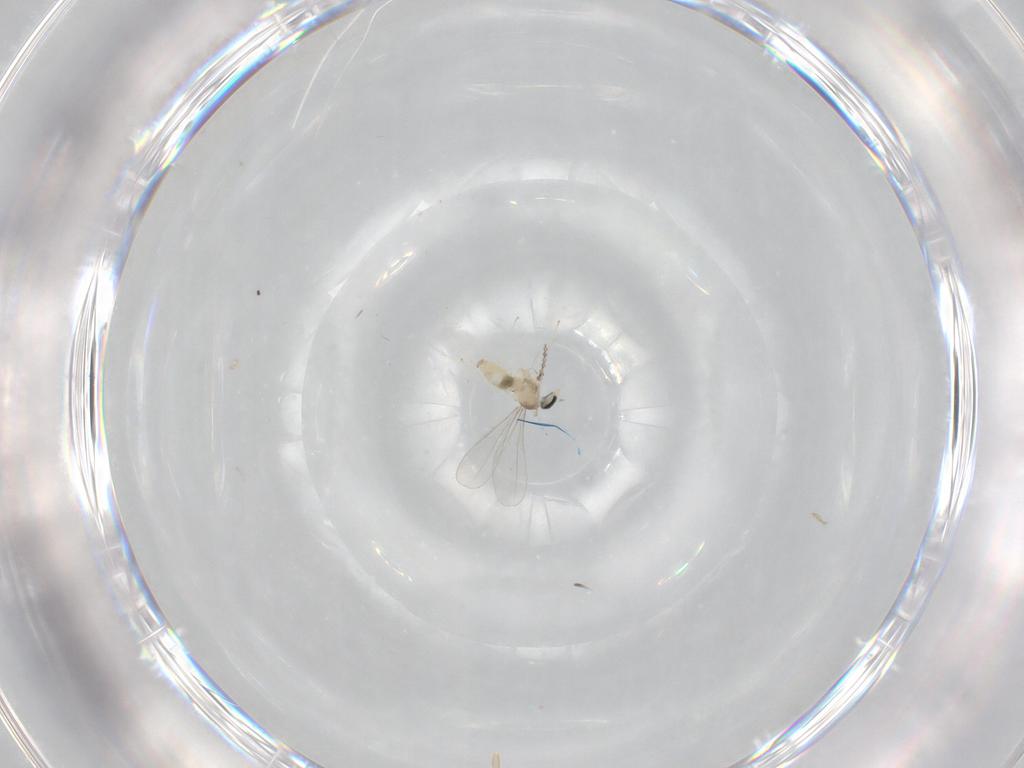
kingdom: Animalia
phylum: Arthropoda
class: Insecta
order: Diptera
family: Cecidomyiidae
